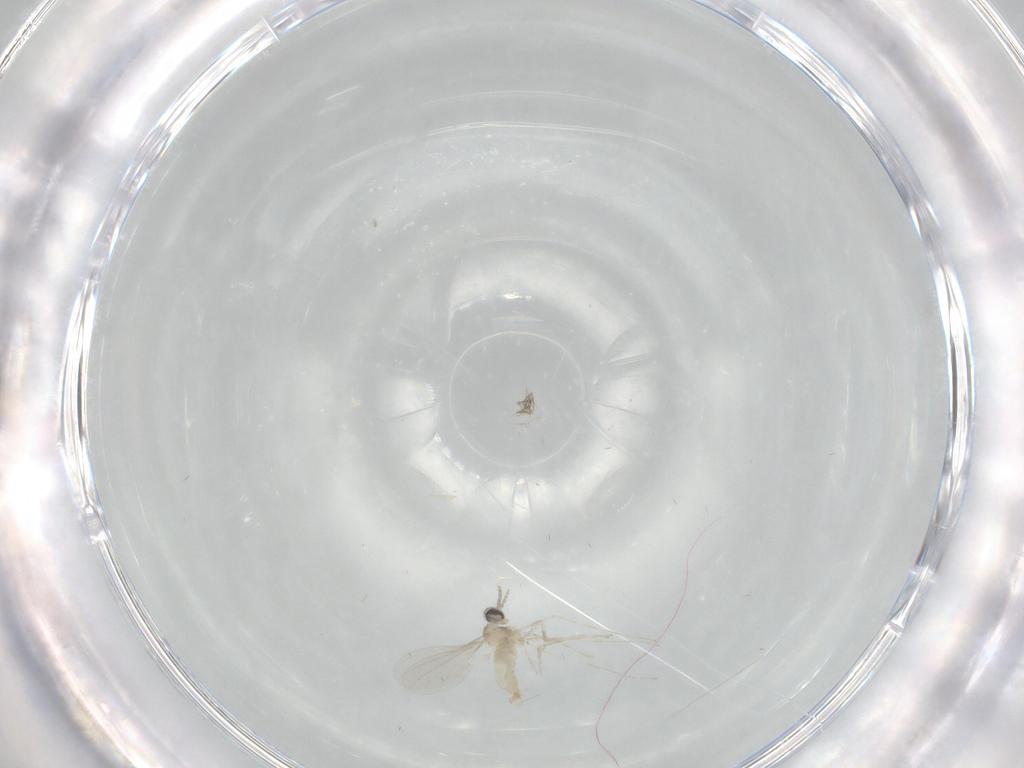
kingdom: Animalia
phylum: Arthropoda
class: Insecta
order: Diptera
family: Cecidomyiidae
